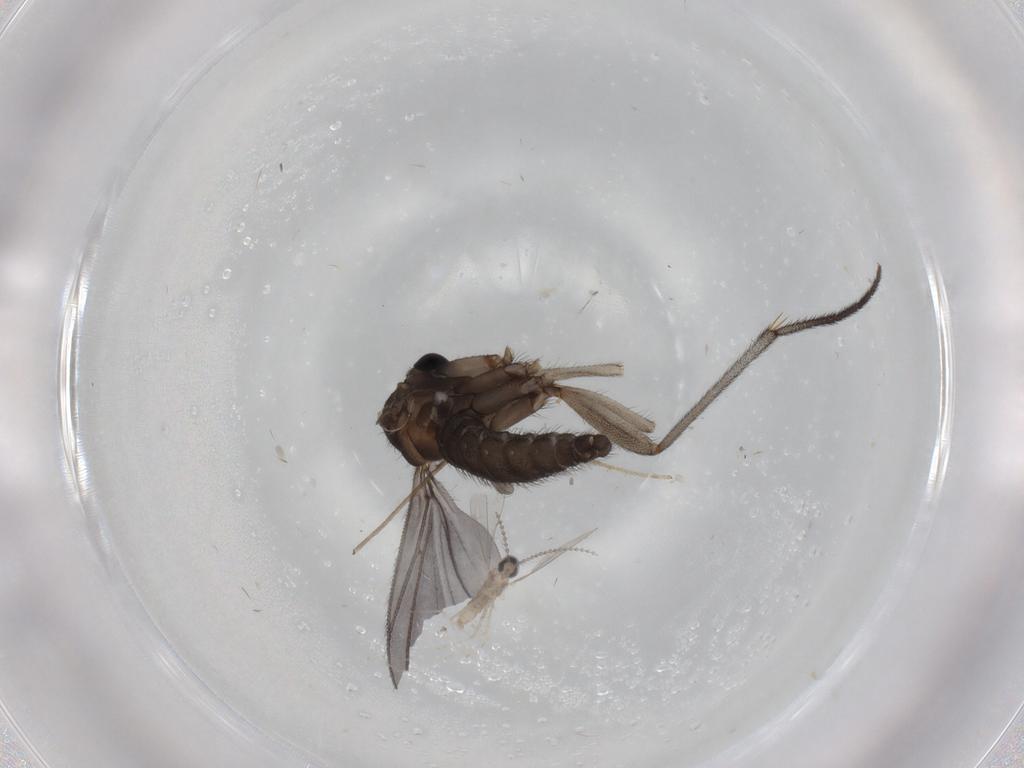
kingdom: Animalia
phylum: Arthropoda
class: Insecta
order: Diptera
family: Sciaridae
